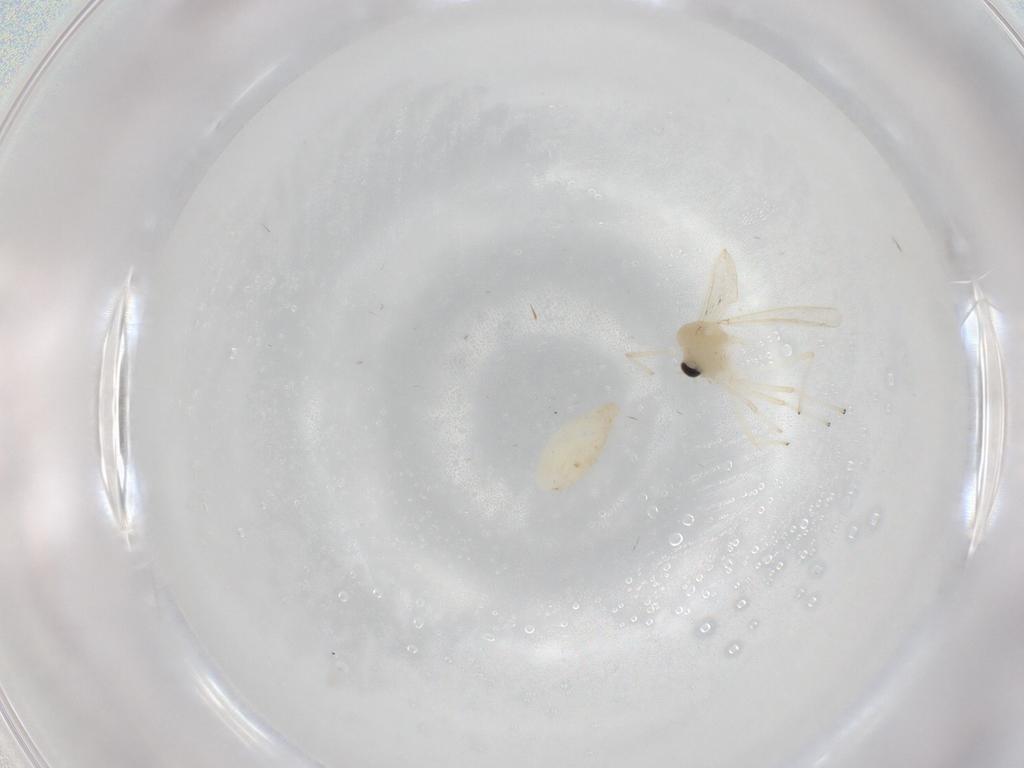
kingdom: Animalia
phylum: Arthropoda
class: Insecta
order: Diptera
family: Chironomidae
